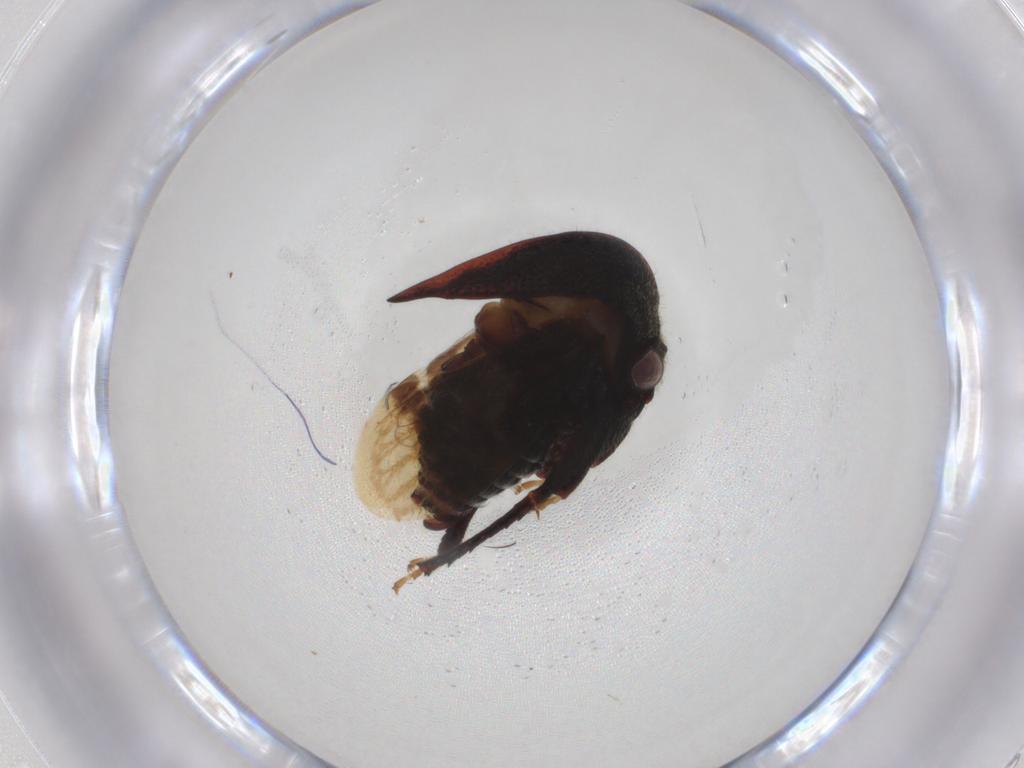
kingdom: Animalia
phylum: Arthropoda
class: Insecta
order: Hemiptera
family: Membracidae
